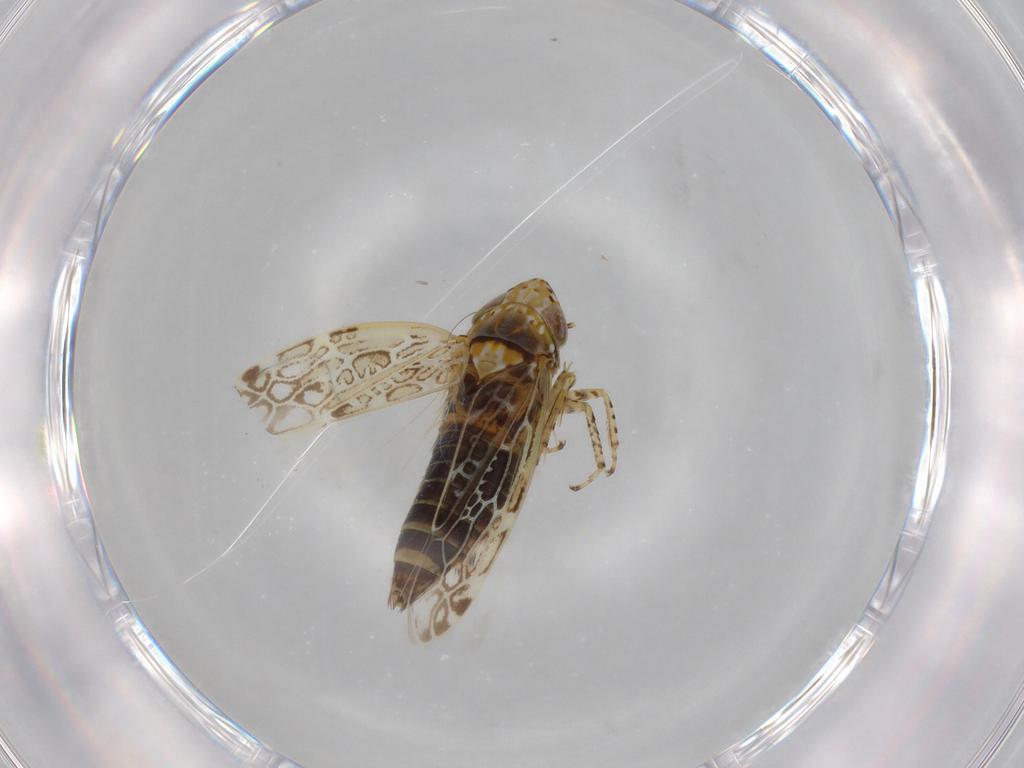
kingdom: Animalia
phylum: Arthropoda
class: Insecta
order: Hemiptera
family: Cicadellidae
